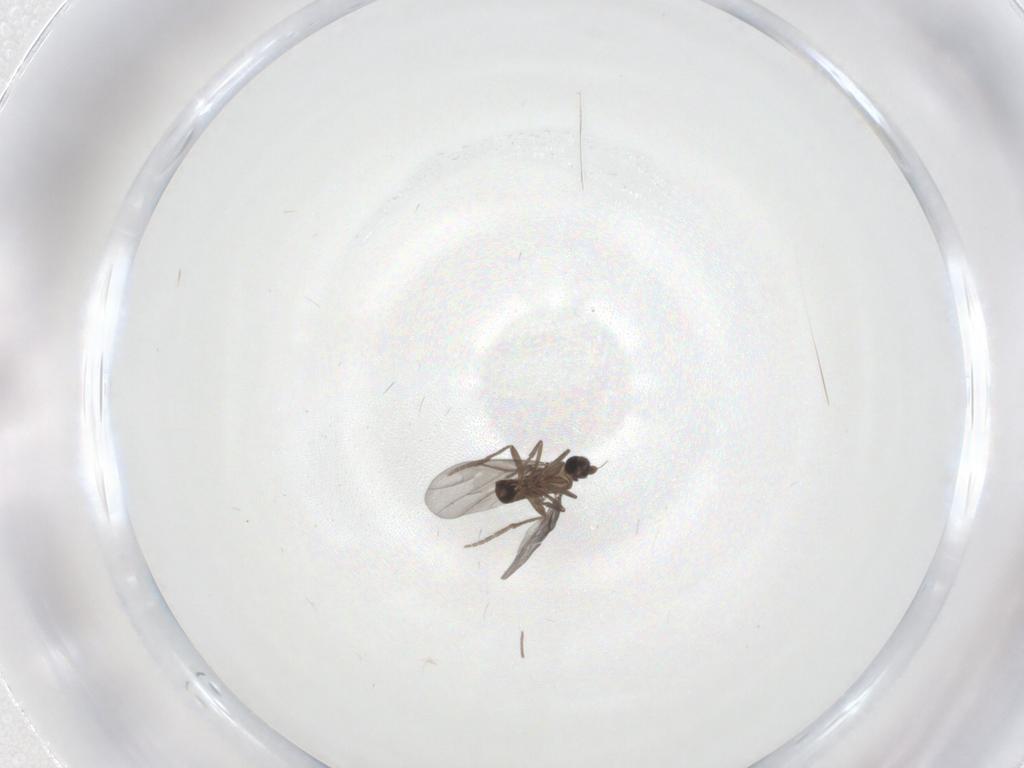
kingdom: Animalia
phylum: Arthropoda
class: Insecta
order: Diptera
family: Phoridae
